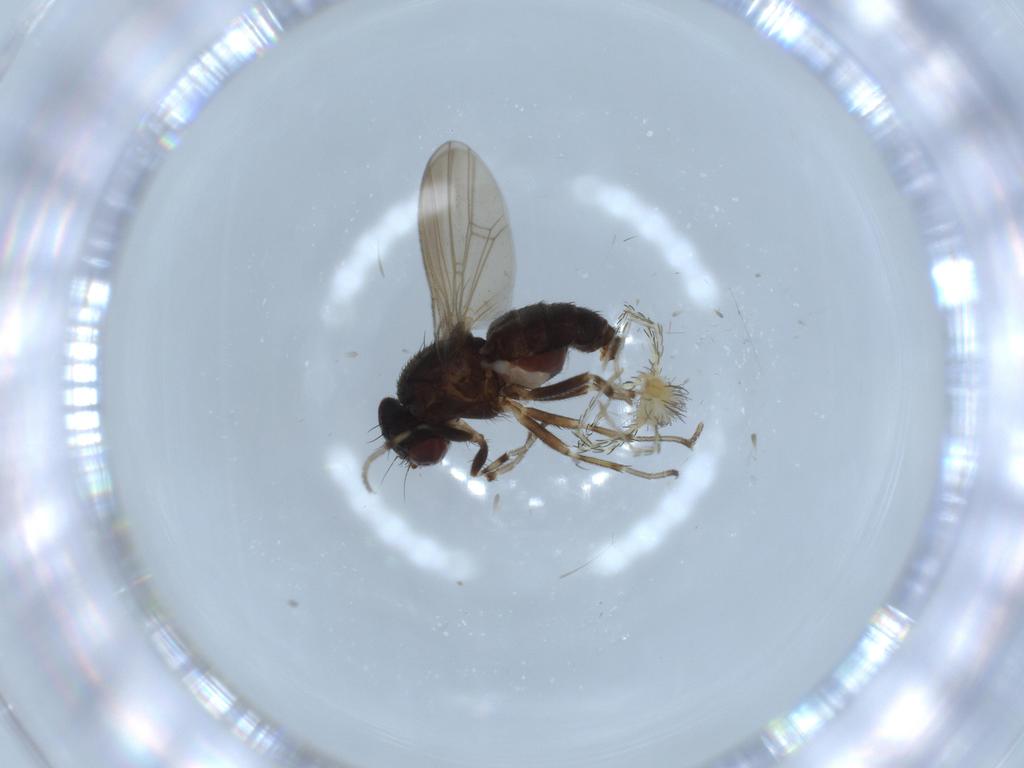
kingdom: Animalia
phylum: Arthropoda
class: Arachnida
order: Trombidiformes
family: Erythraeidae
